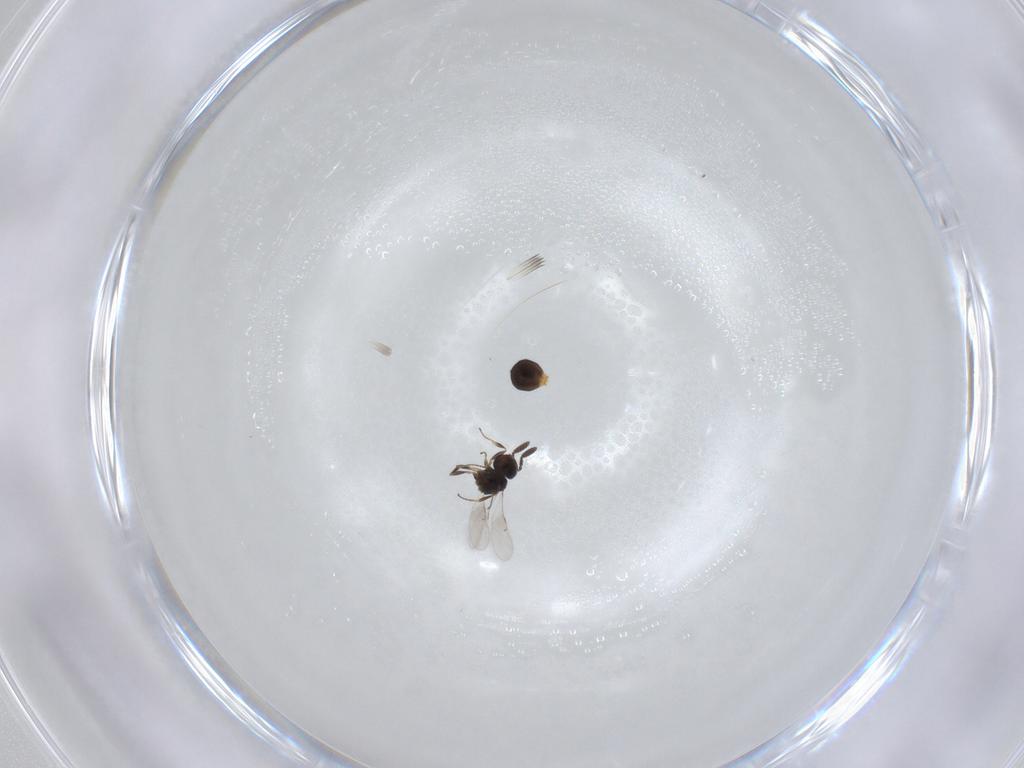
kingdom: Animalia
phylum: Arthropoda
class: Insecta
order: Hymenoptera
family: Scelionidae
